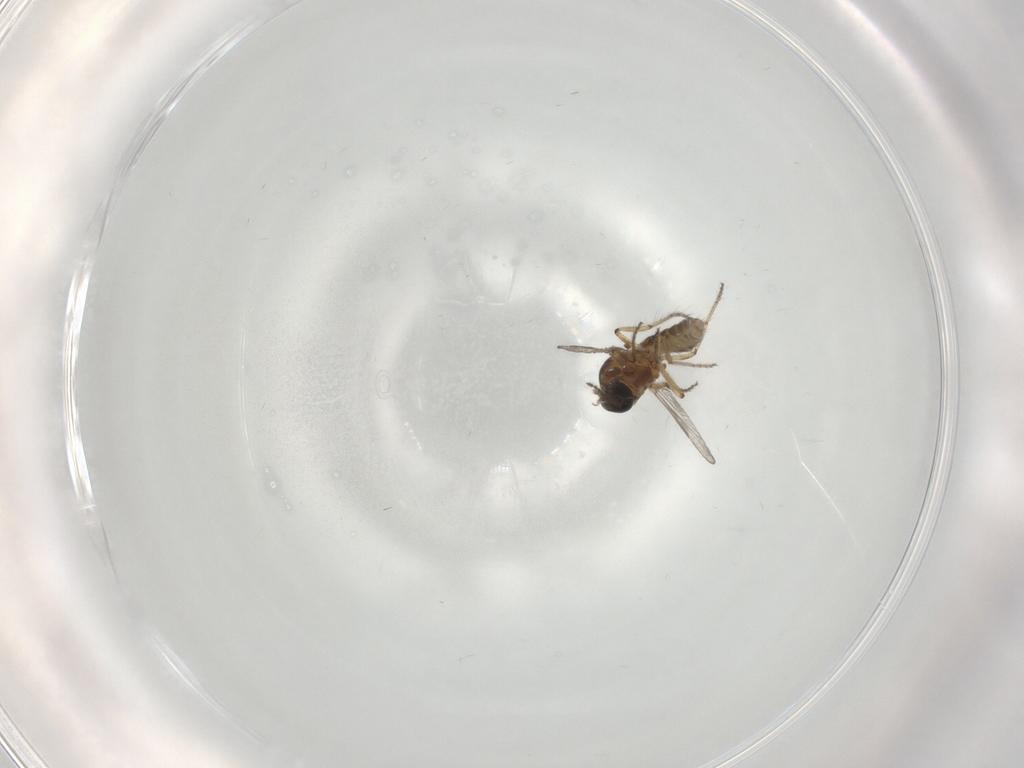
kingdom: Animalia
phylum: Arthropoda
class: Insecta
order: Diptera
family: Ceratopogonidae
